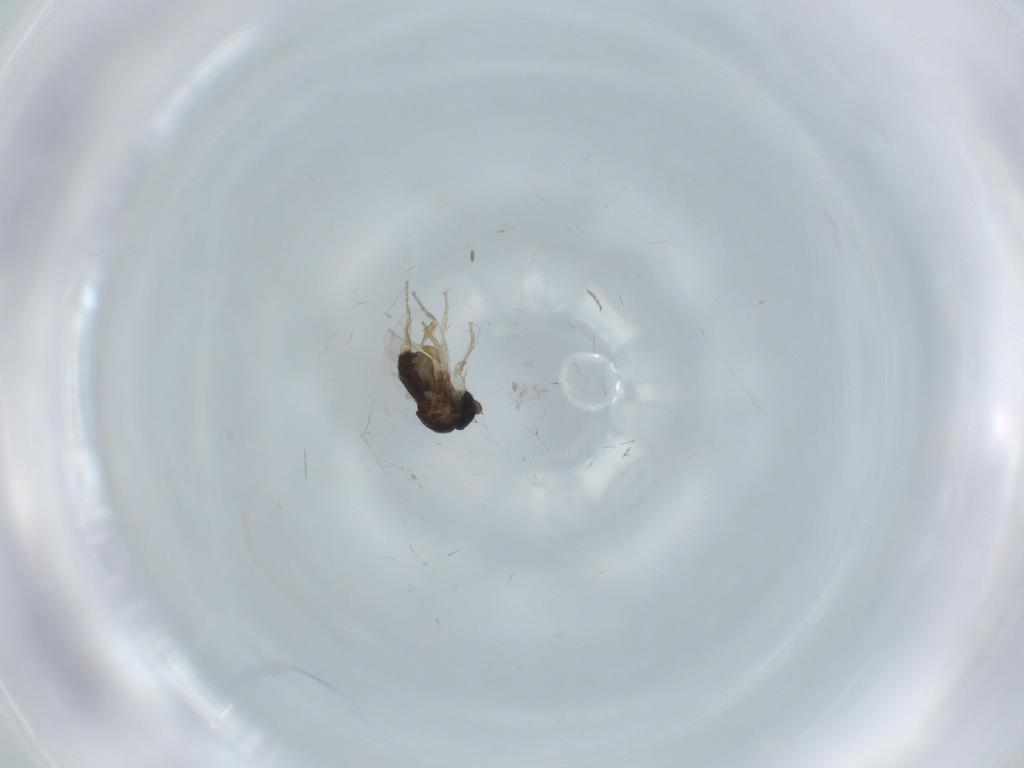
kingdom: Animalia
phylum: Arthropoda
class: Insecta
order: Diptera
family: Phoridae
